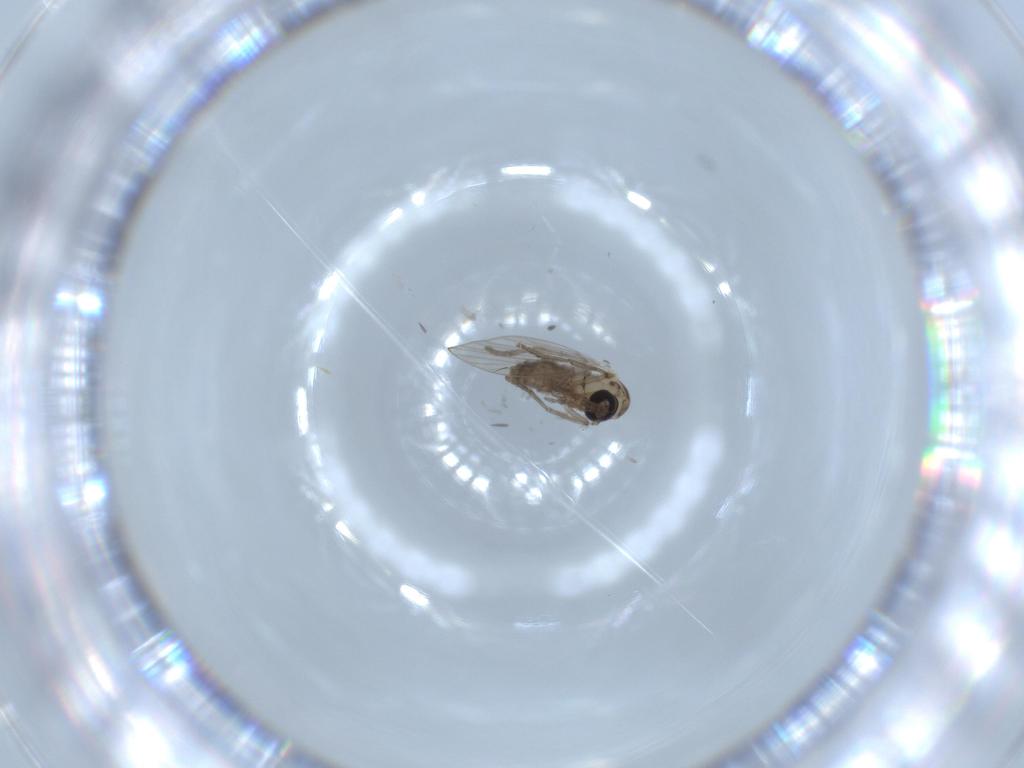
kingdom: Animalia
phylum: Arthropoda
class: Insecta
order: Diptera
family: Psychodidae
